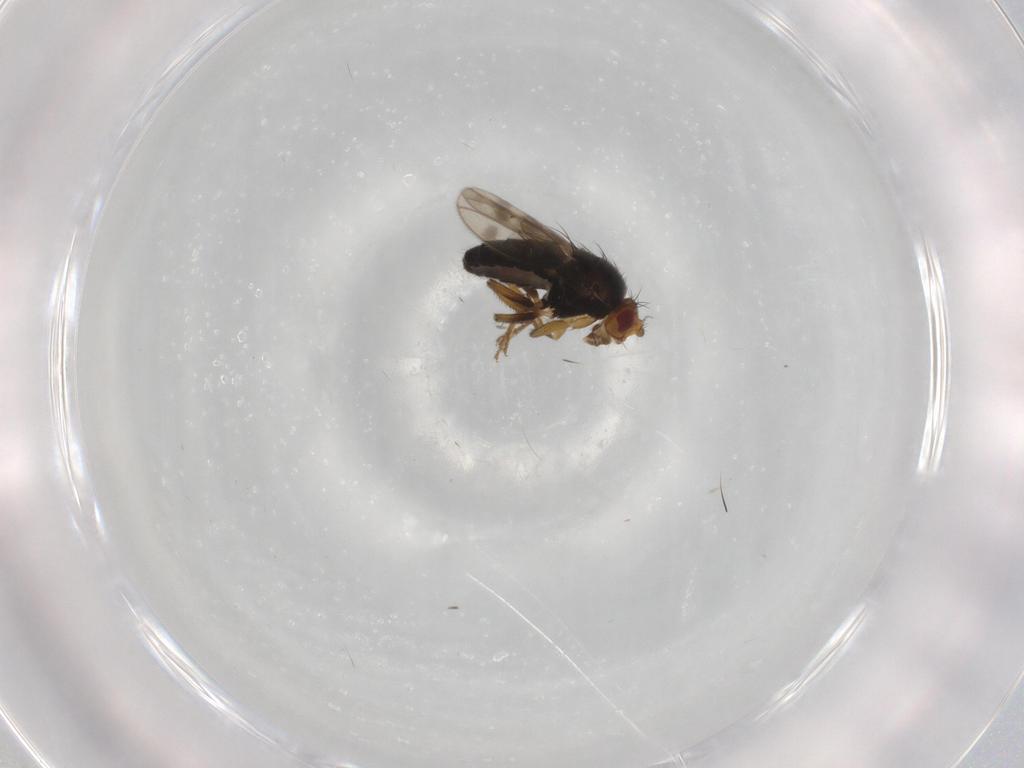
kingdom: Animalia
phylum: Arthropoda
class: Insecta
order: Diptera
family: Sphaeroceridae
